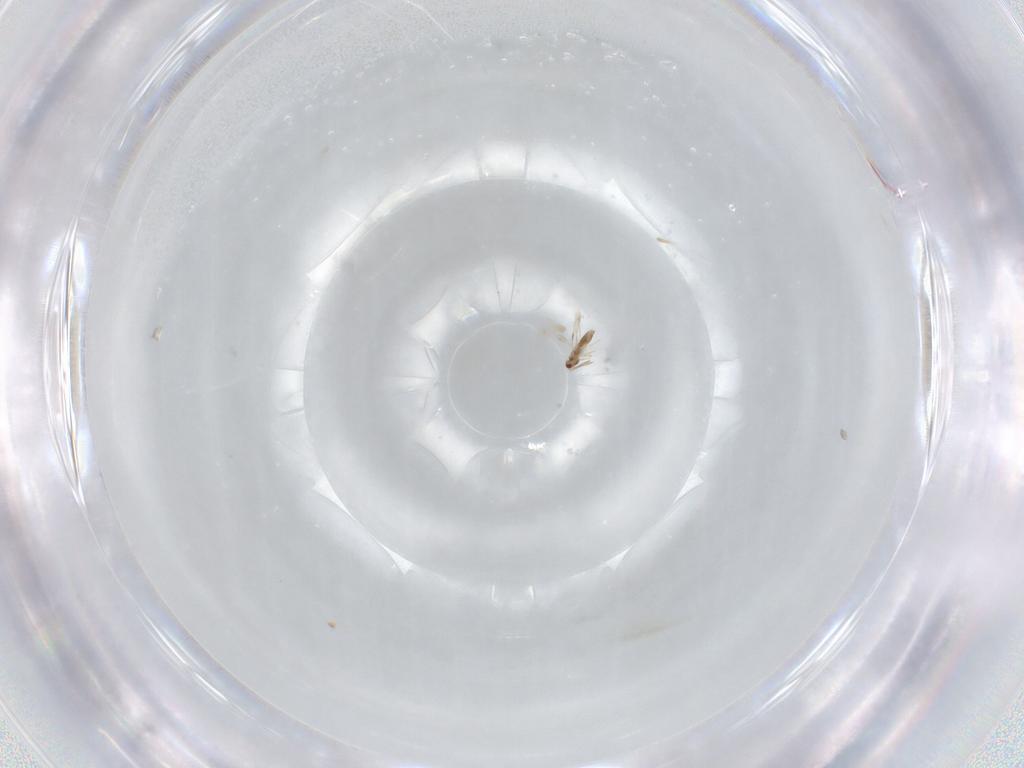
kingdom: Animalia
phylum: Arthropoda
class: Insecta
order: Hymenoptera
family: Aphelinidae
